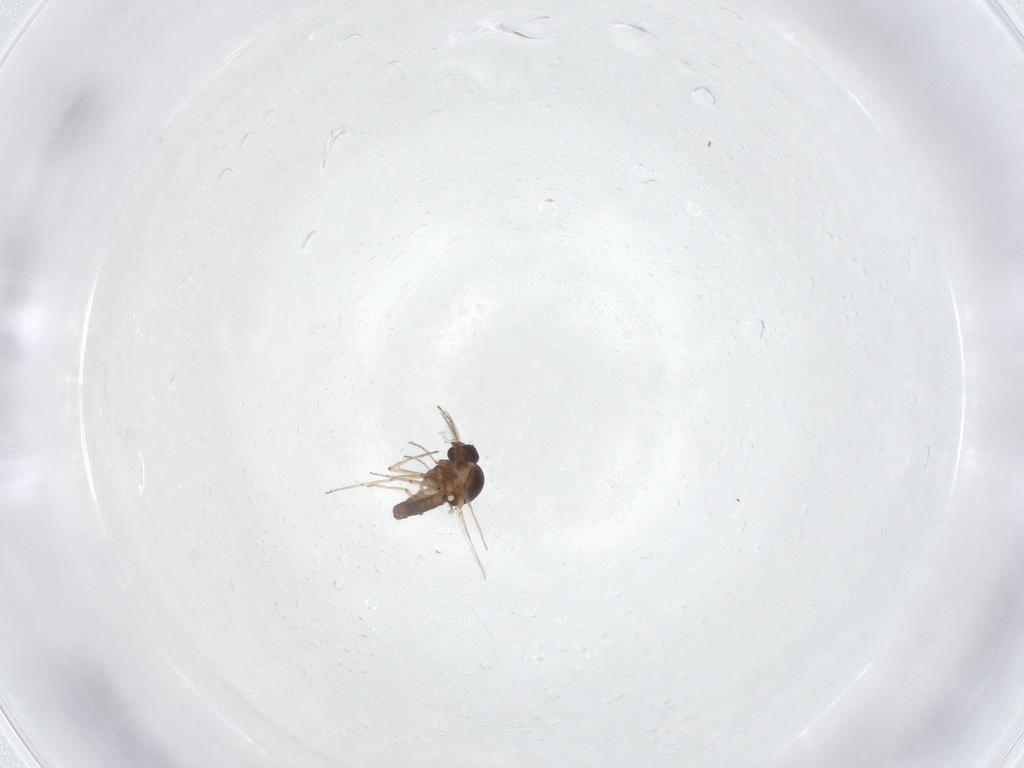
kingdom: Animalia
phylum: Arthropoda
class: Insecta
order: Diptera
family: Ceratopogonidae
